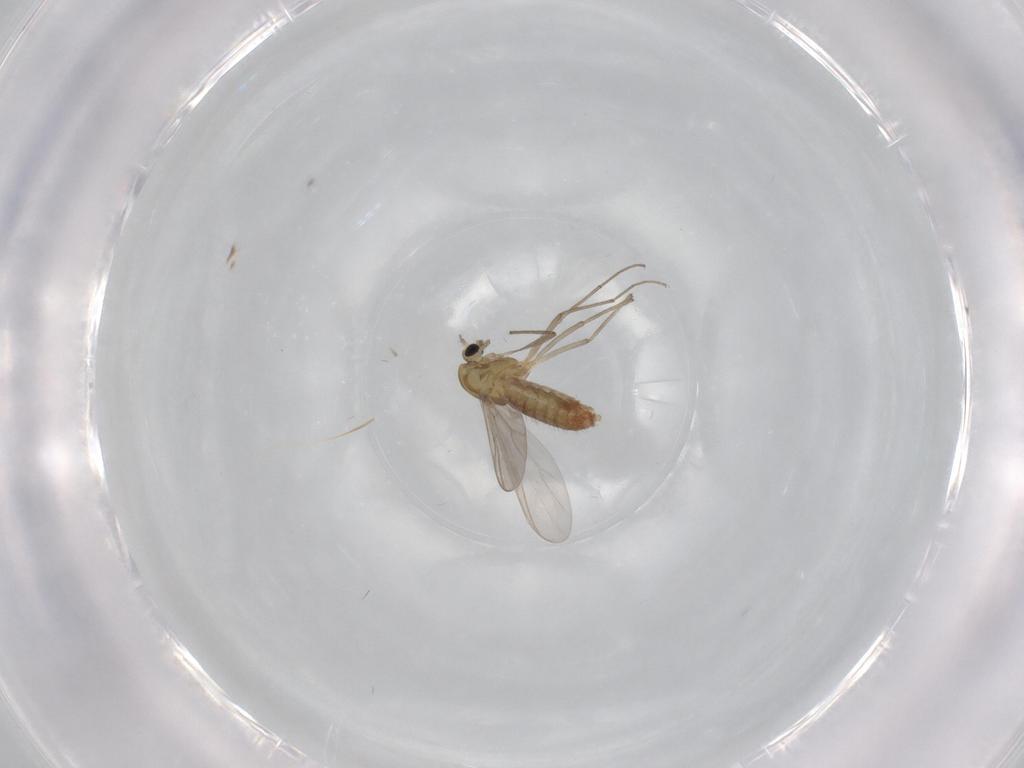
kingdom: Animalia
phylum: Arthropoda
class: Insecta
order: Diptera
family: Chironomidae
